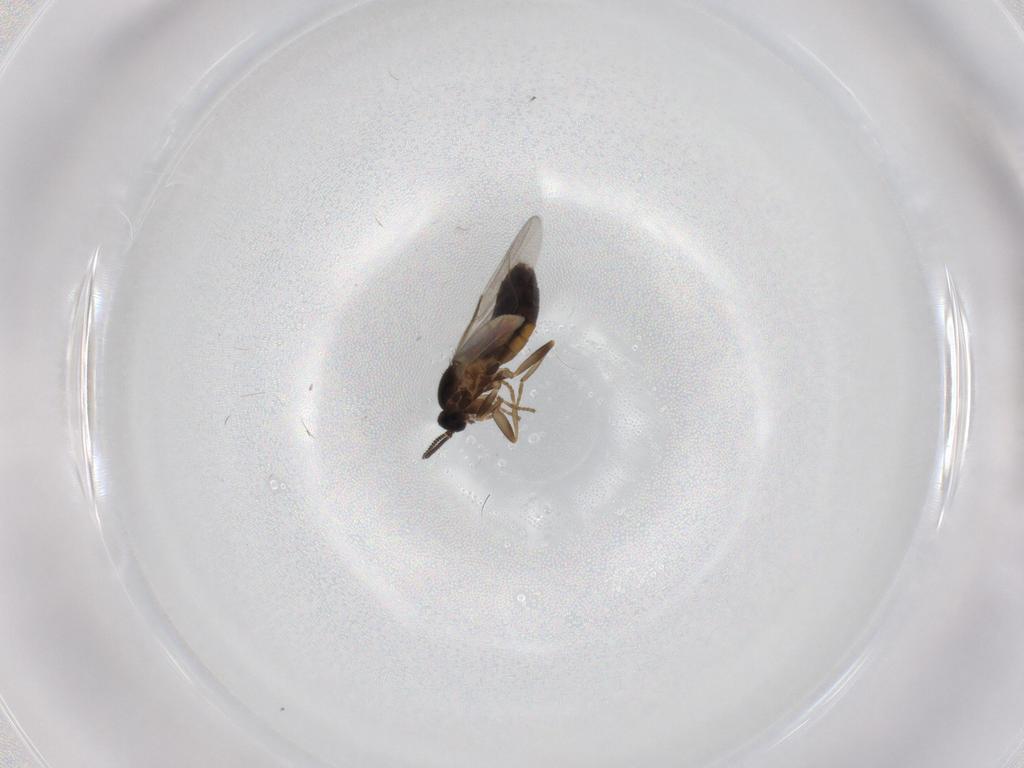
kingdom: Animalia
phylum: Arthropoda
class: Insecta
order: Diptera
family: Scatopsidae
